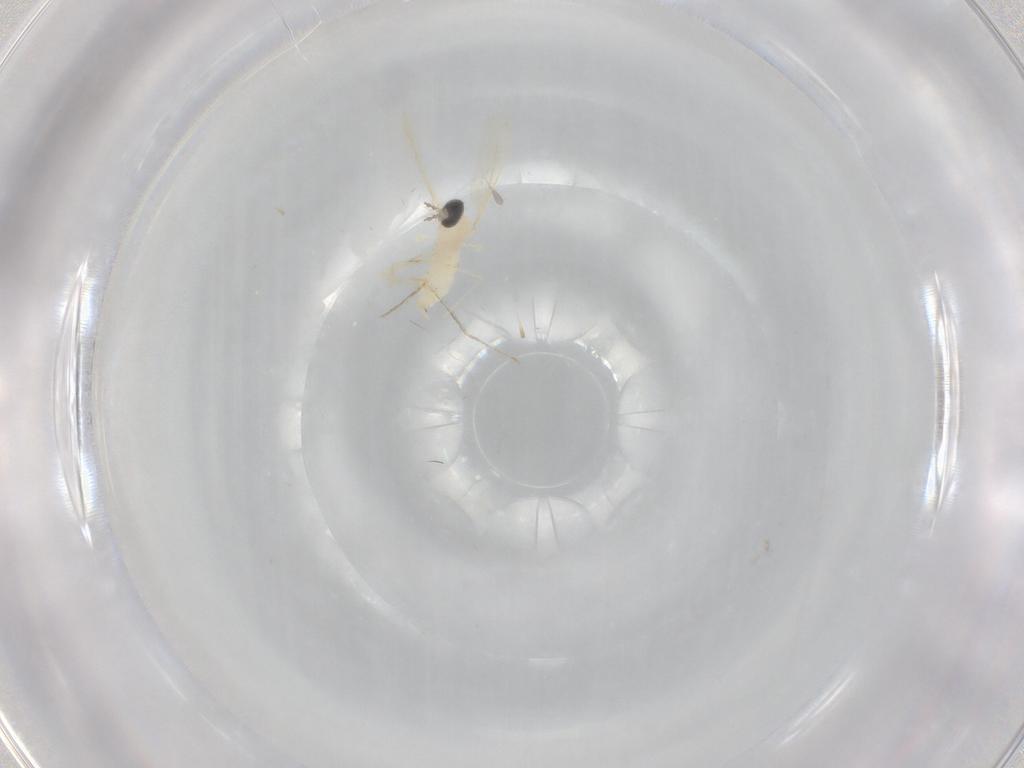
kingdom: Animalia
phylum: Arthropoda
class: Insecta
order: Diptera
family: Cecidomyiidae
